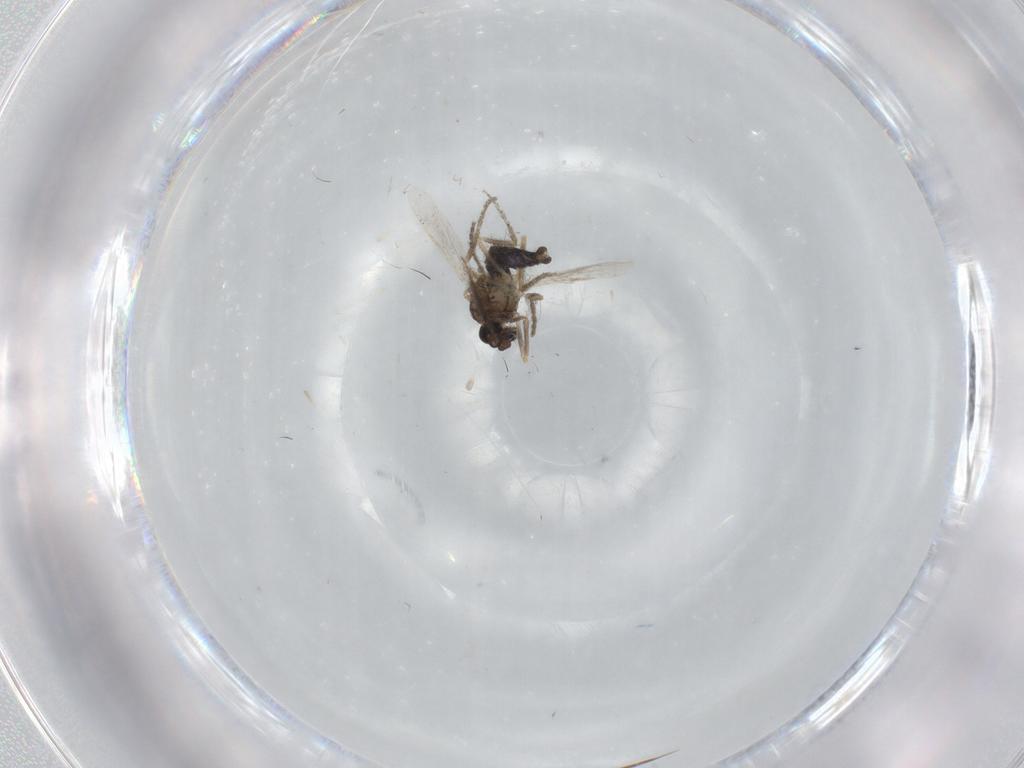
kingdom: Animalia
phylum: Arthropoda
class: Insecta
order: Diptera
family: Ceratopogonidae
